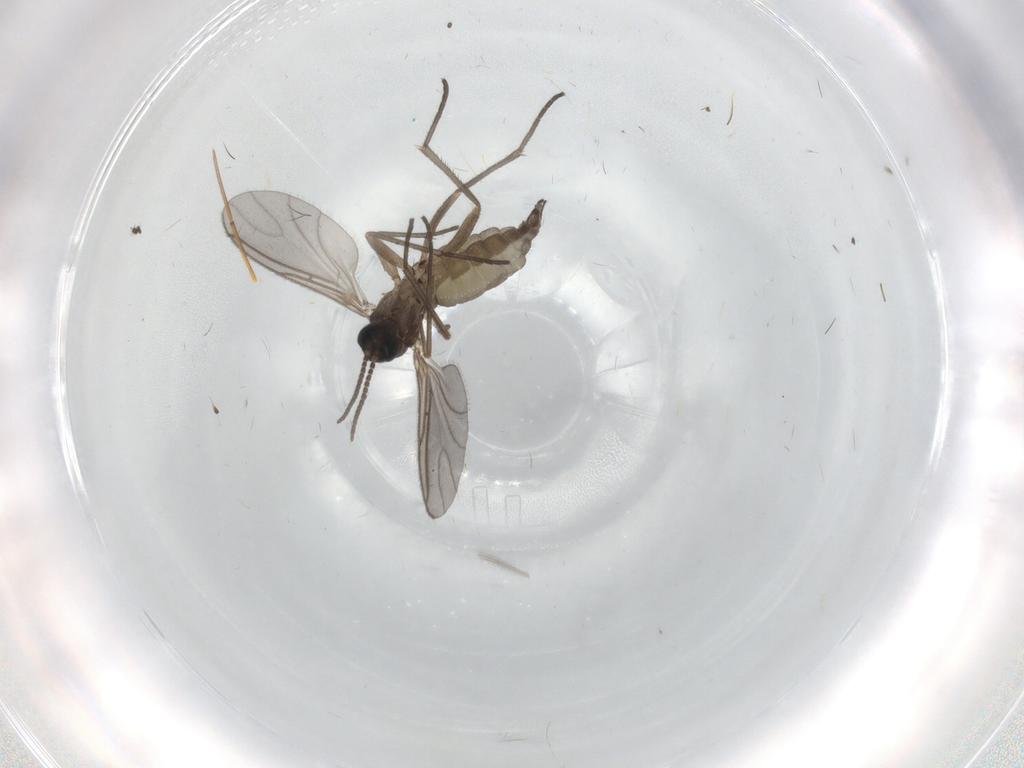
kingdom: Animalia
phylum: Arthropoda
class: Insecta
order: Diptera
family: Sciaridae
